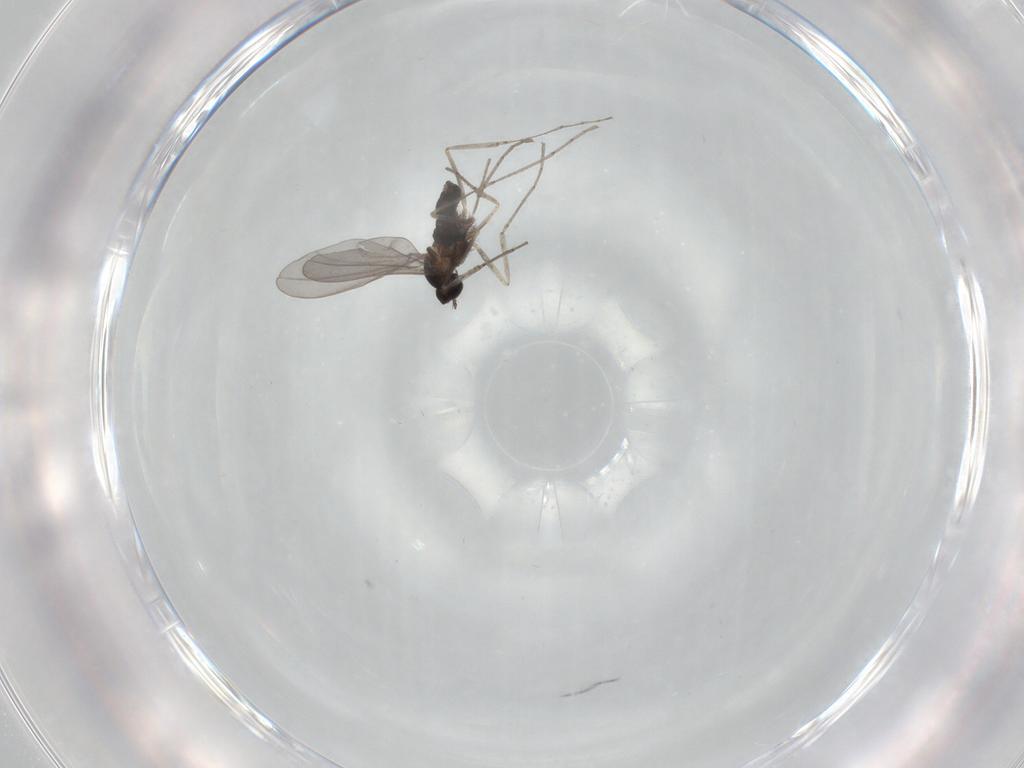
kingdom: Animalia
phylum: Arthropoda
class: Insecta
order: Diptera
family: Cecidomyiidae
